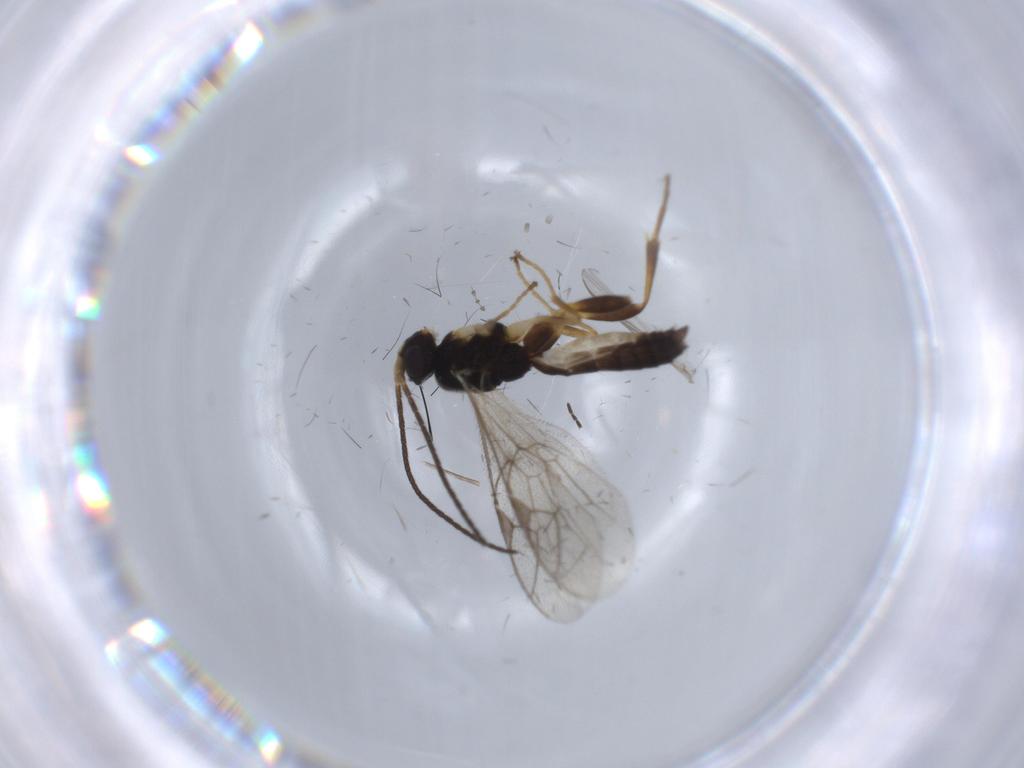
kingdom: Animalia
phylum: Arthropoda
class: Insecta
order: Hymenoptera
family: Ichneumonidae
